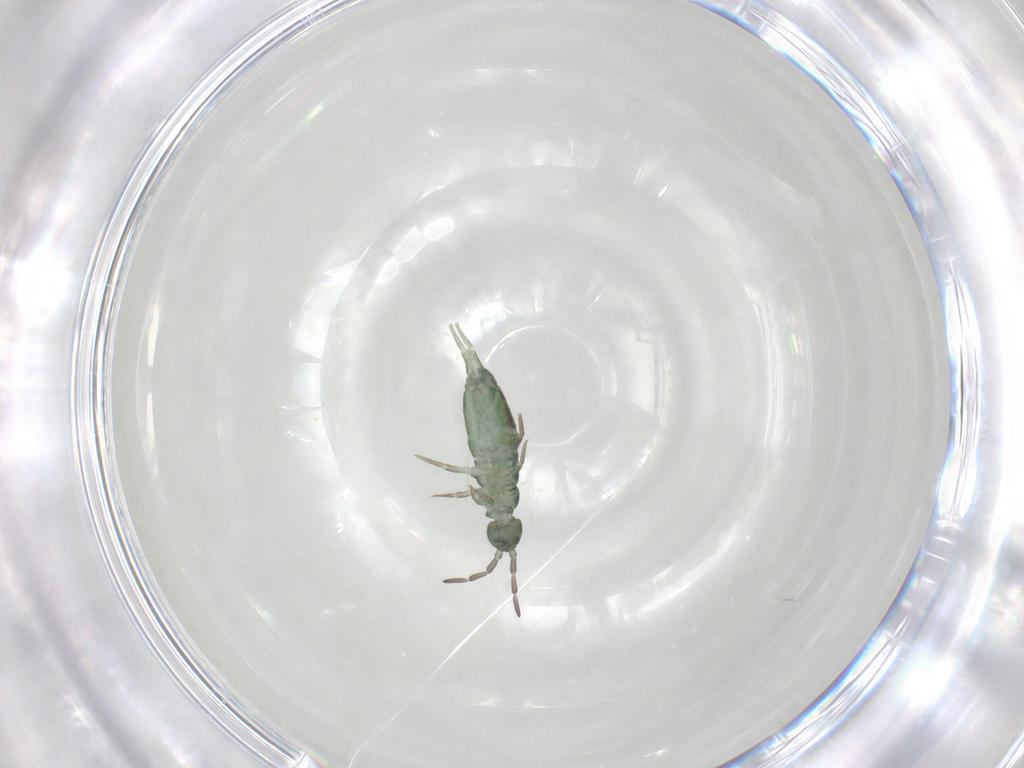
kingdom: Animalia
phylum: Arthropoda
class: Collembola
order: Entomobryomorpha
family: Isotomidae
